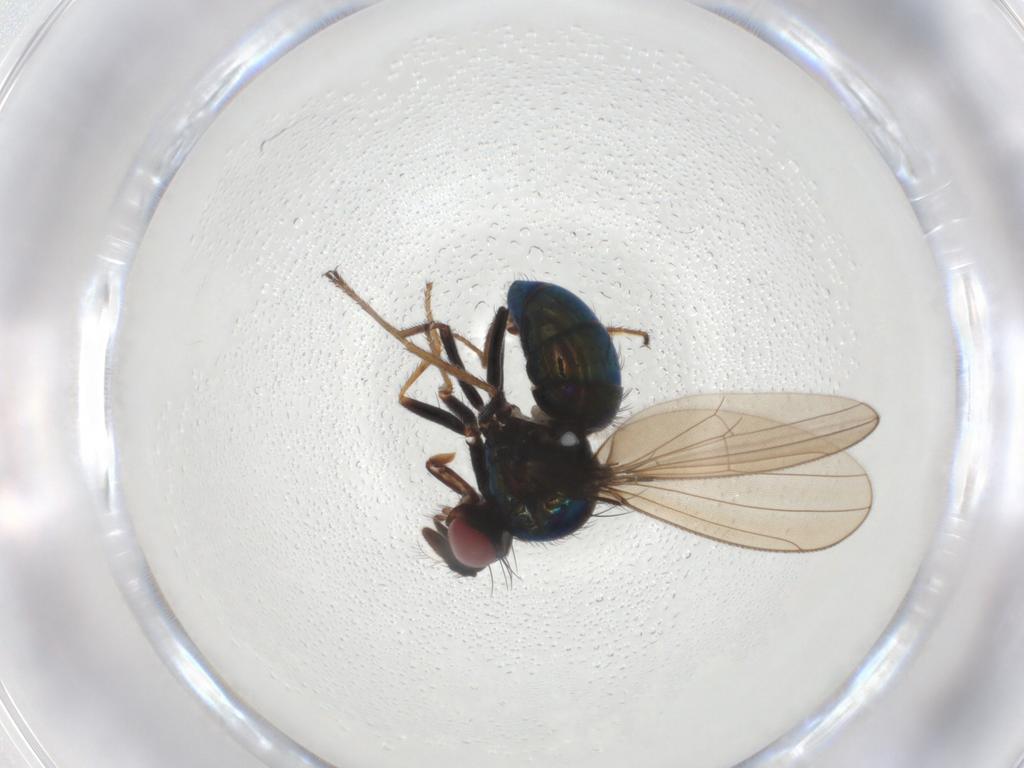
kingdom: Animalia
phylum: Arthropoda
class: Insecta
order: Diptera
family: Ephydridae
